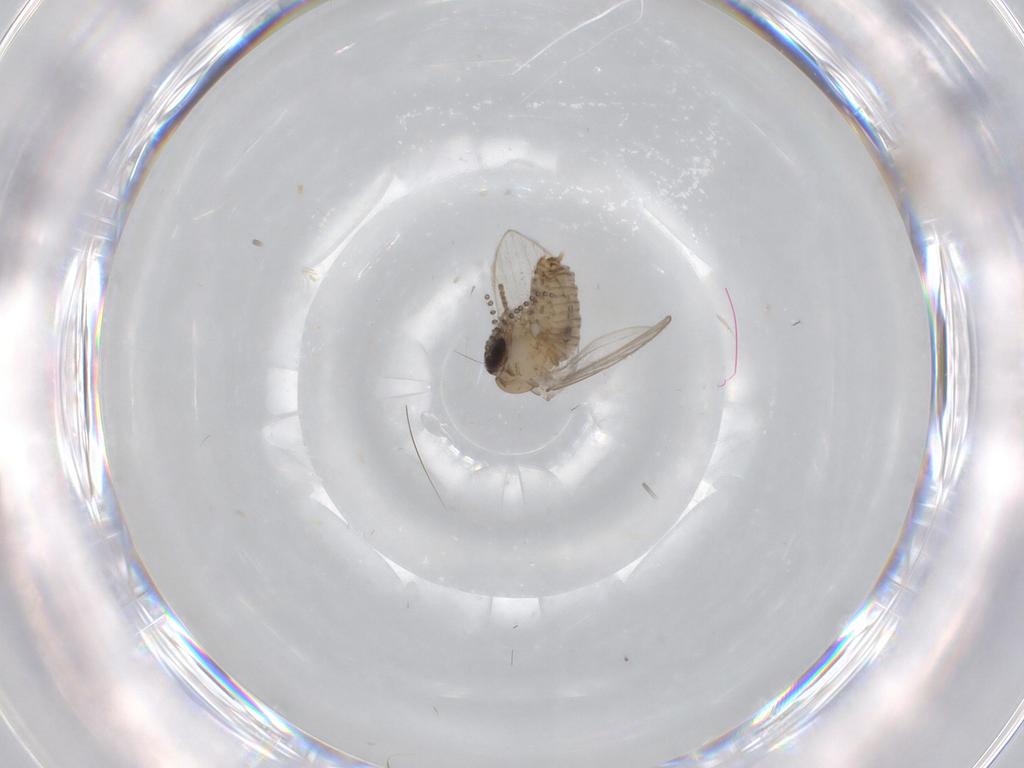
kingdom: Animalia
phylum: Arthropoda
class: Insecta
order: Diptera
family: Psychodidae
